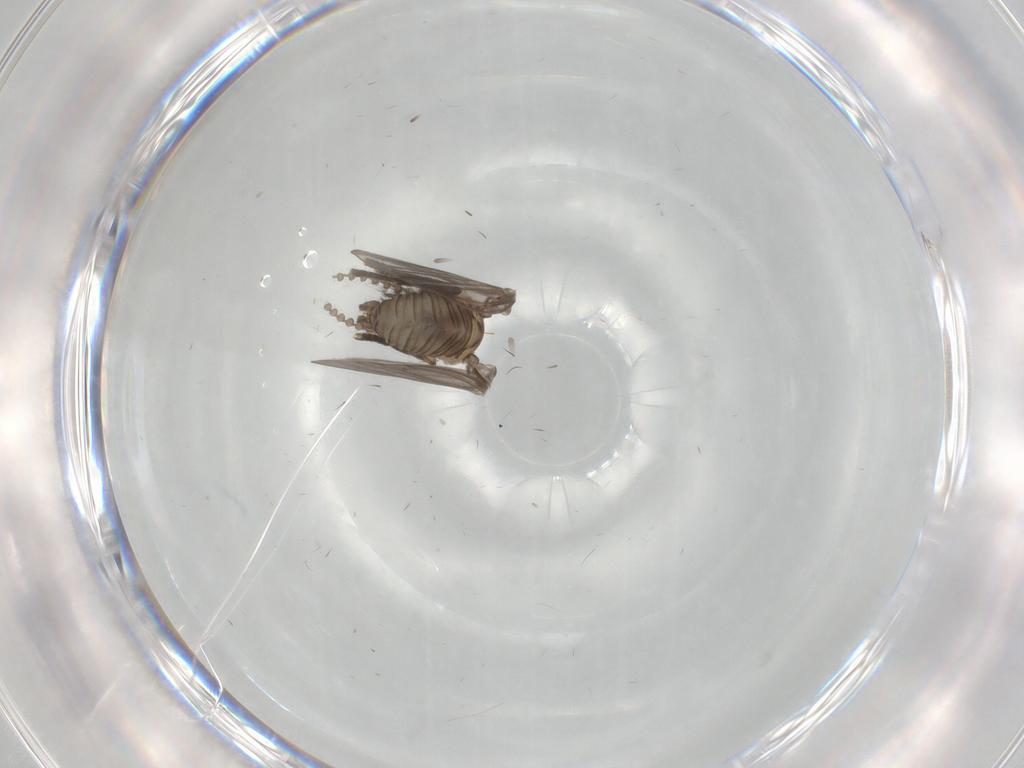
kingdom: Animalia
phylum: Arthropoda
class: Insecta
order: Diptera
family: Psychodidae
